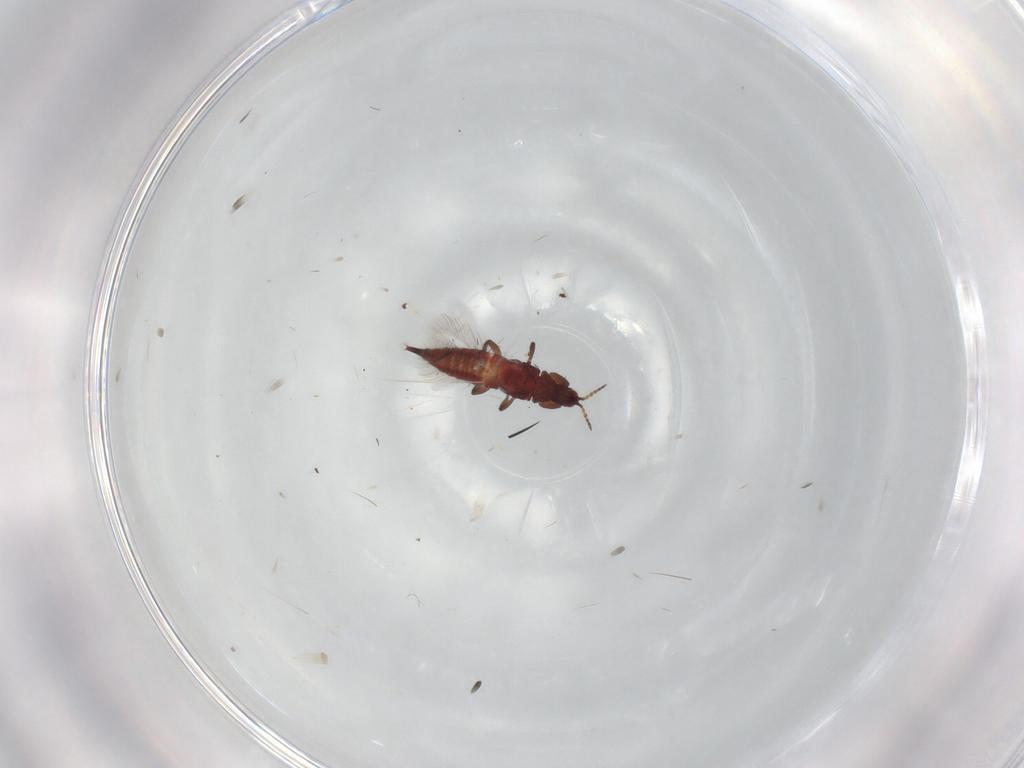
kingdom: Animalia
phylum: Arthropoda
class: Insecta
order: Thysanoptera
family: Phlaeothripidae
